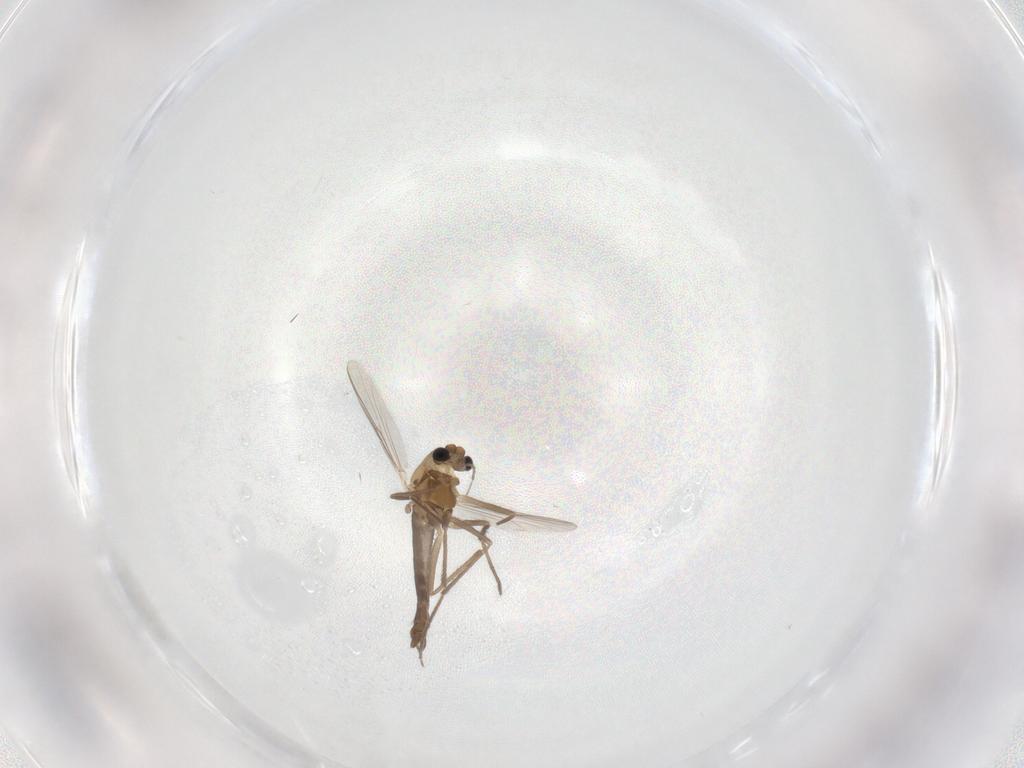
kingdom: Animalia
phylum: Arthropoda
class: Insecta
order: Diptera
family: Chironomidae
